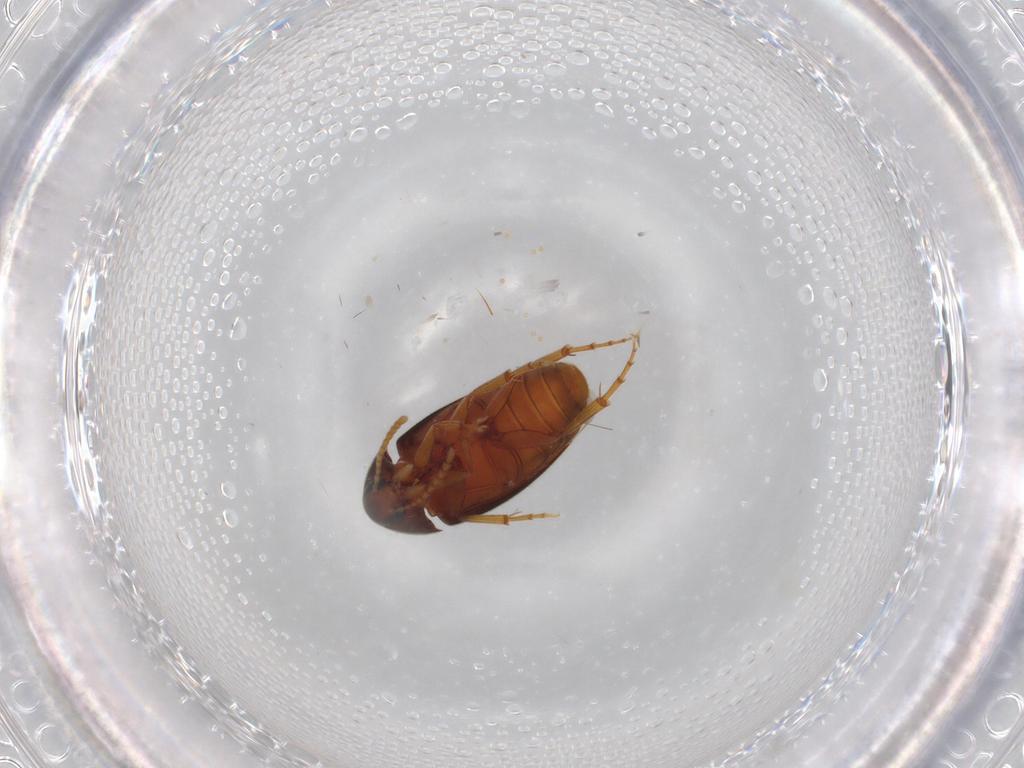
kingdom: Animalia
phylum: Arthropoda
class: Insecta
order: Coleoptera
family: Scraptiidae
